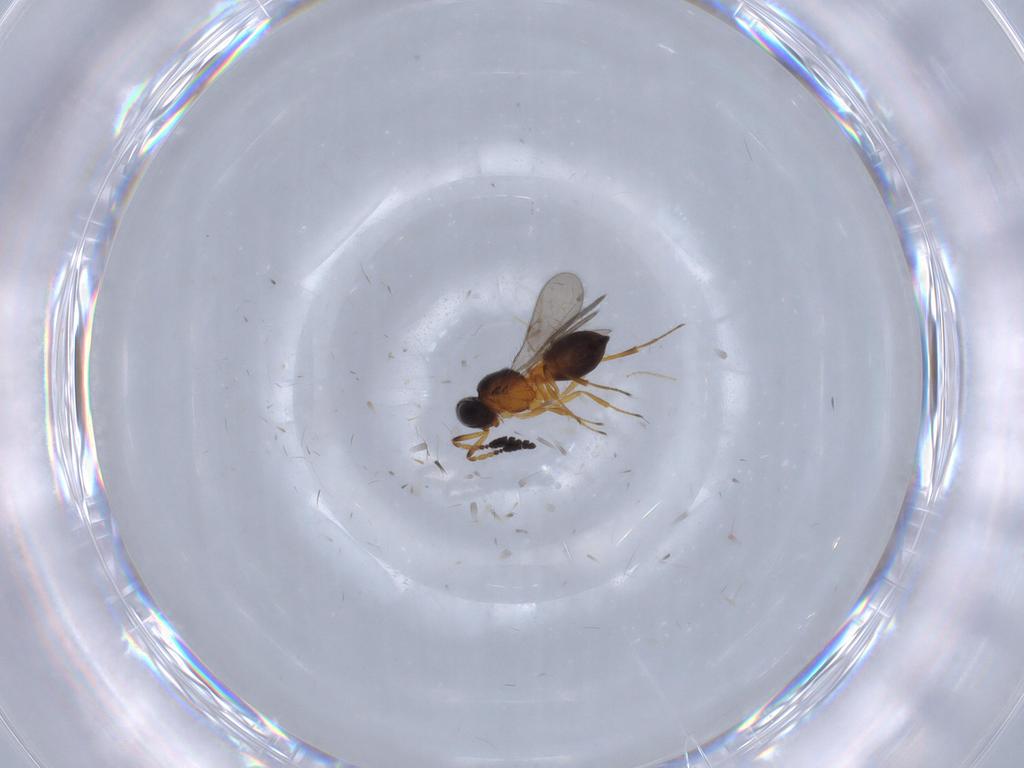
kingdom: Animalia
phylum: Arthropoda
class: Insecta
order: Hymenoptera
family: Scelionidae
